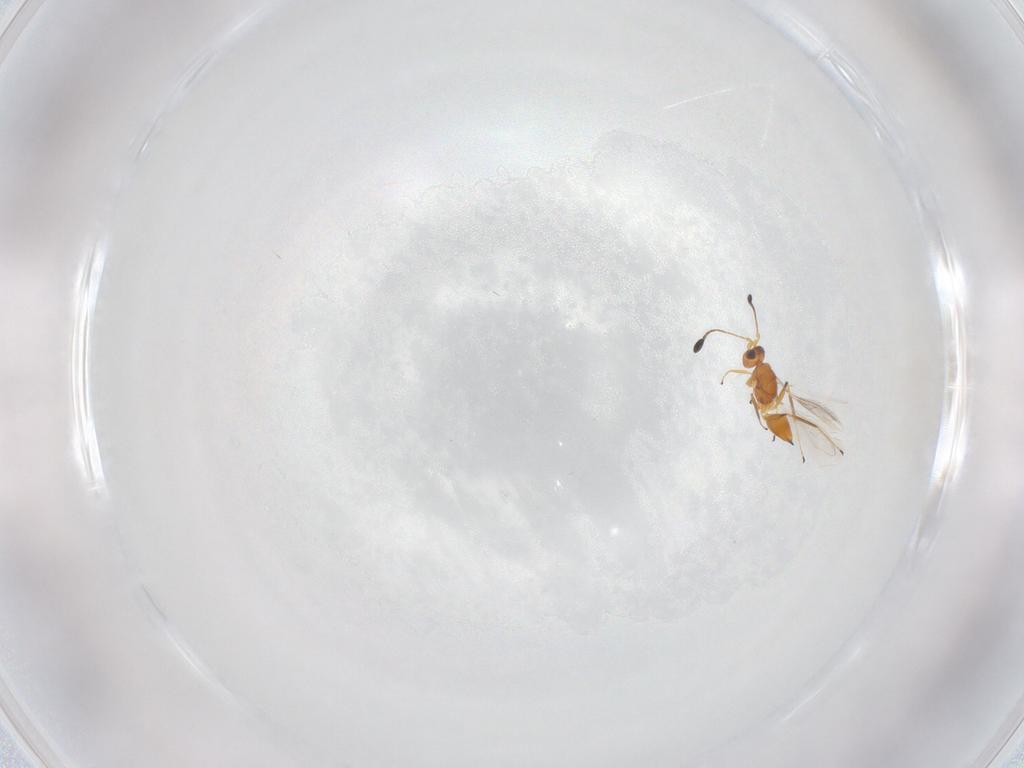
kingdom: Animalia
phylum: Arthropoda
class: Insecta
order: Hymenoptera
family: Mymaridae
